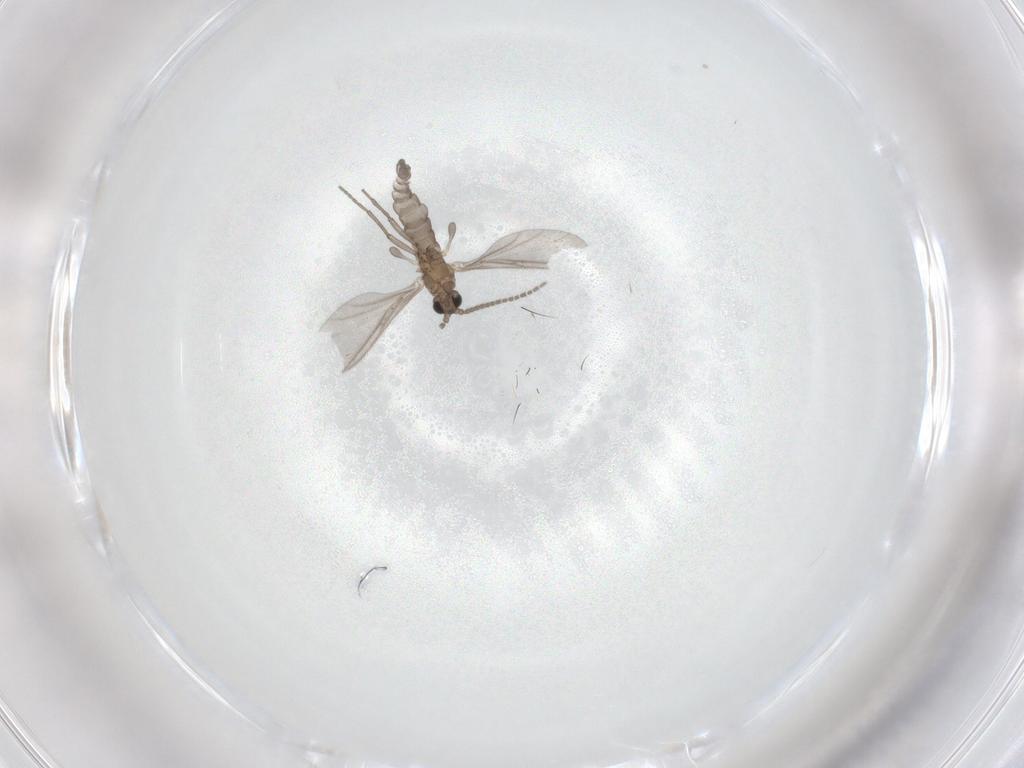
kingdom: Animalia
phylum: Arthropoda
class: Insecta
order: Diptera
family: Sciaridae
